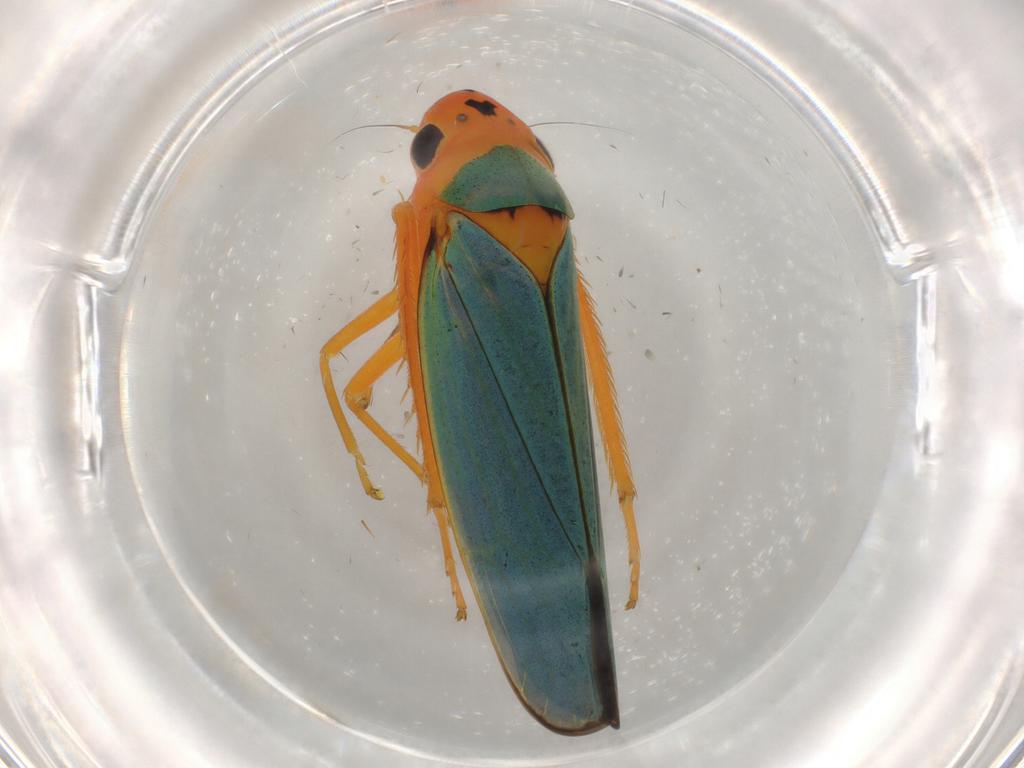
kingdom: Animalia
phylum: Arthropoda
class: Insecta
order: Hemiptera
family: Cicadellidae
